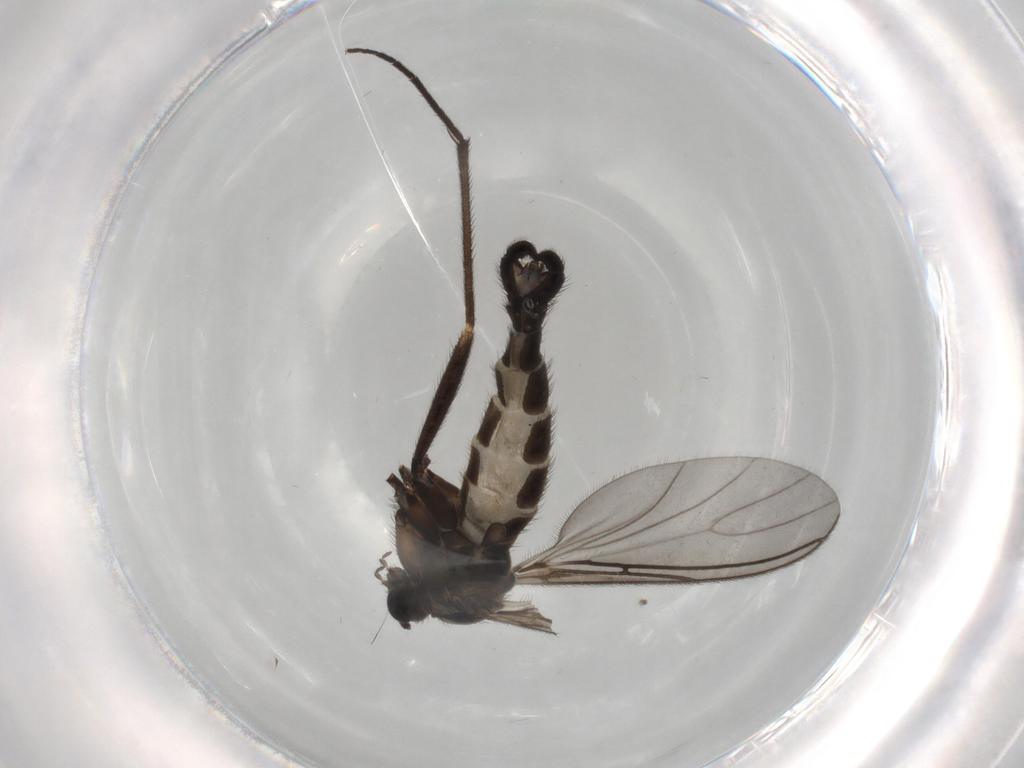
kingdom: Animalia
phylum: Arthropoda
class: Insecta
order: Diptera
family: Sciaridae
